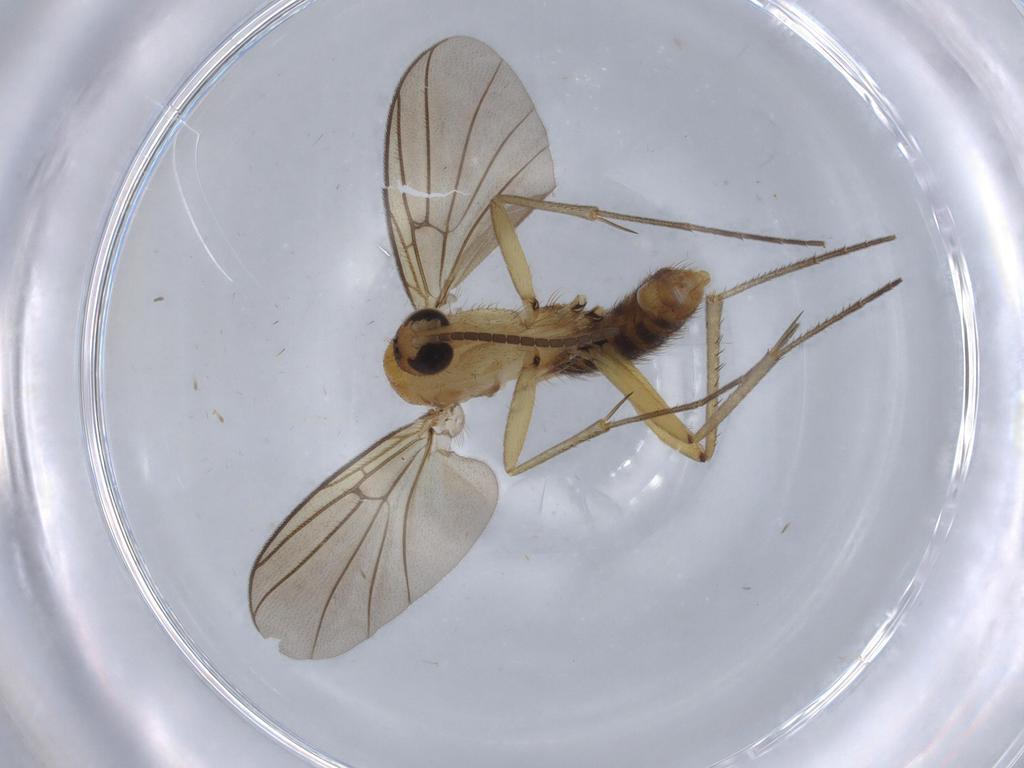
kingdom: Animalia
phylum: Arthropoda
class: Insecta
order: Diptera
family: Psychodidae
